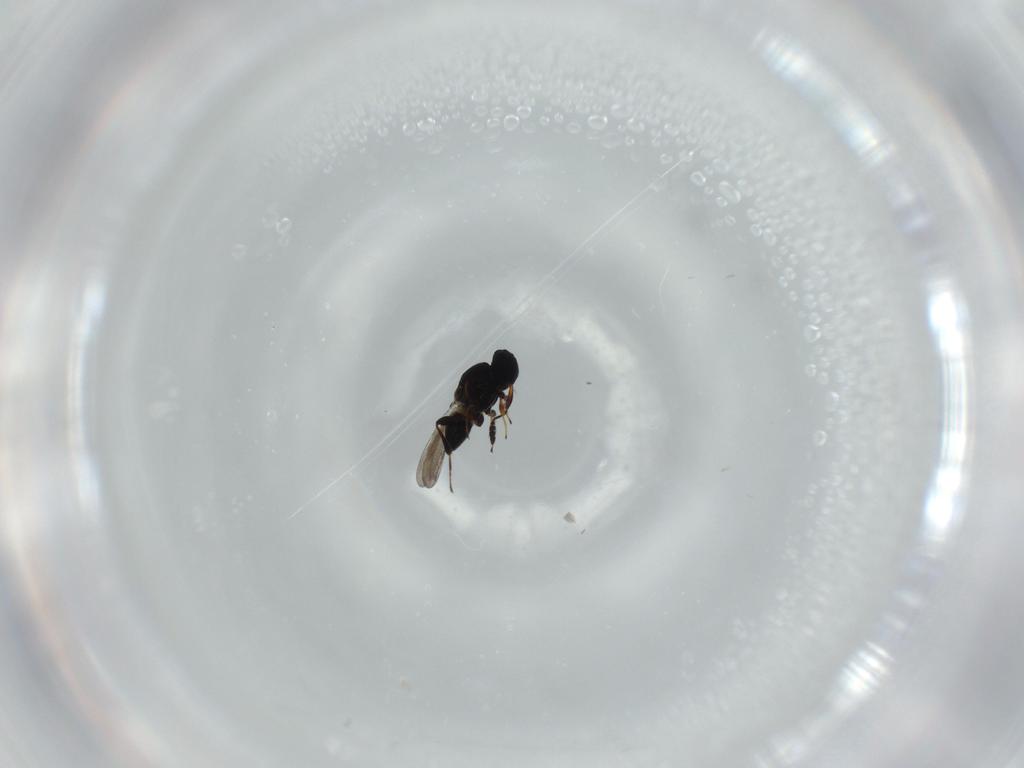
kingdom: Animalia
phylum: Arthropoda
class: Insecta
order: Hymenoptera
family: Platygastridae
